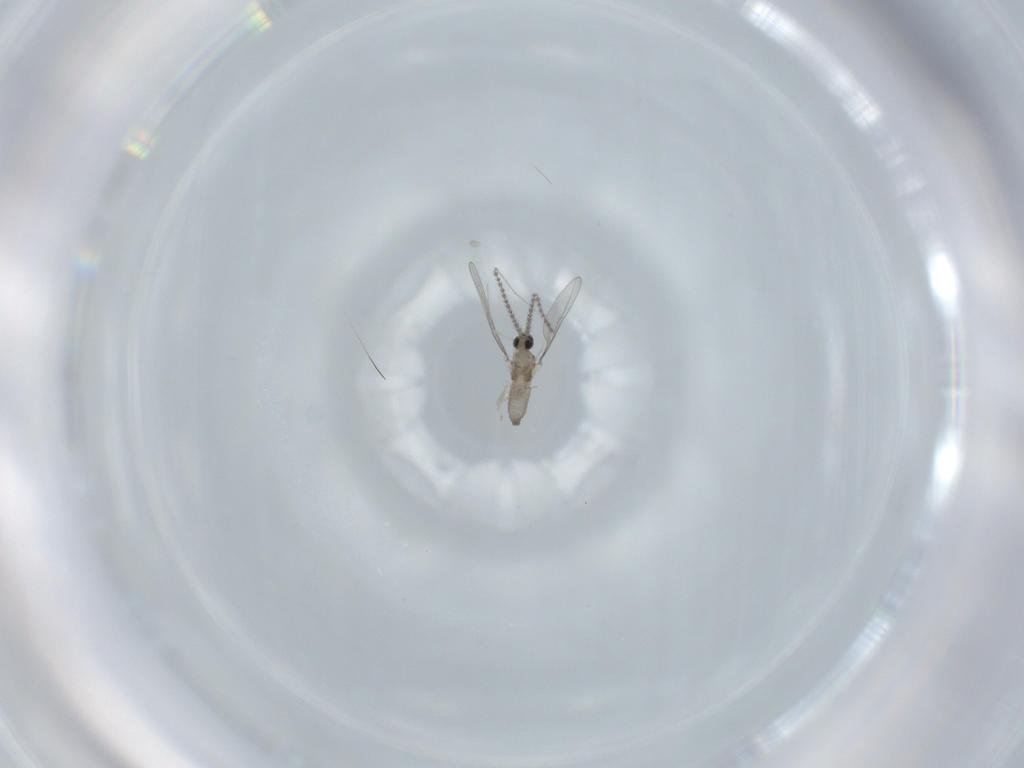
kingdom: Animalia
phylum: Arthropoda
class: Insecta
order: Diptera
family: Cecidomyiidae
